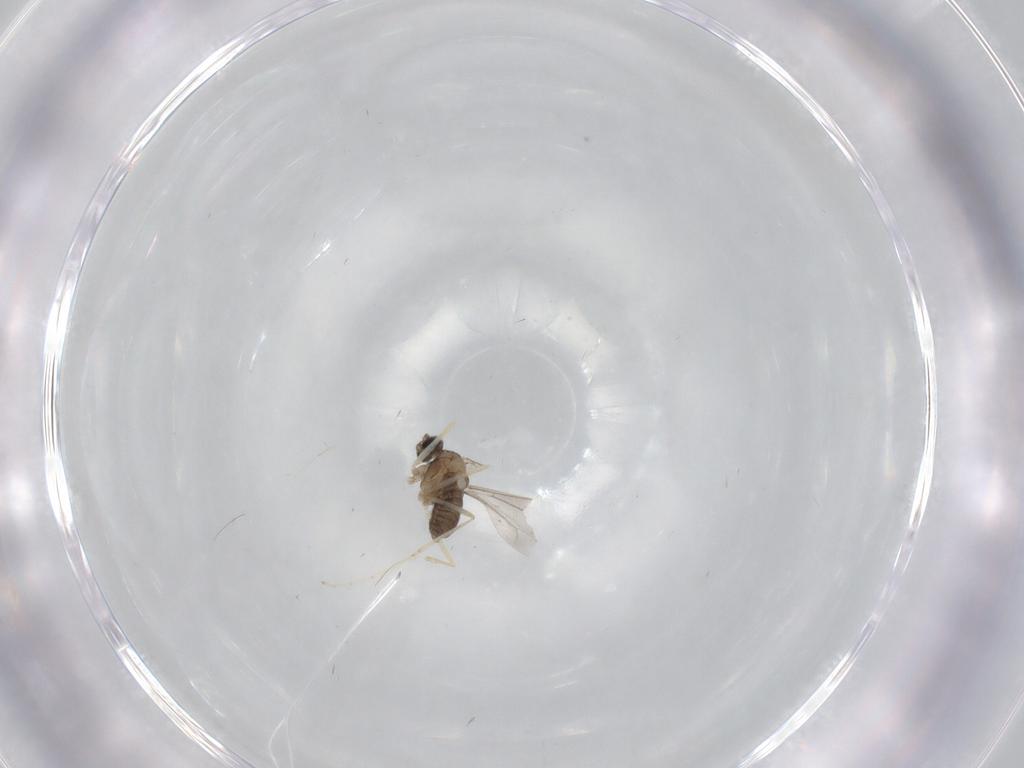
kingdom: Animalia
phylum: Arthropoda
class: Insecta
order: Diptera
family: Cecidomyiidae
